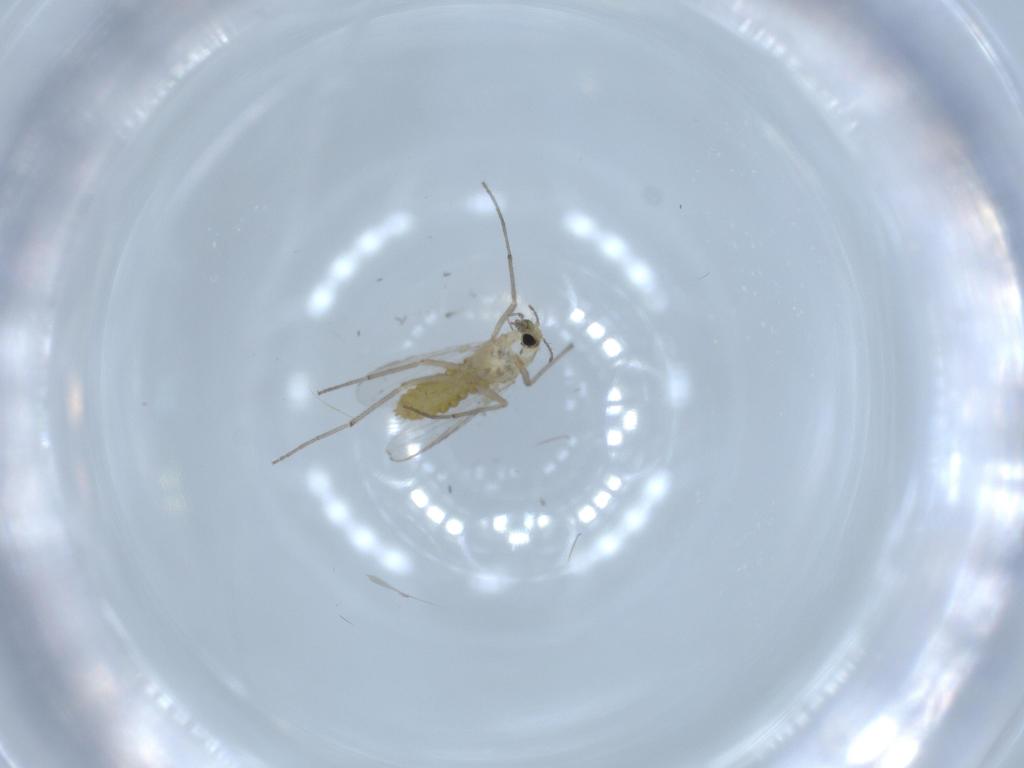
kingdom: Animalia
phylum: Arthropoda
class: Insecta
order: Diptera
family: Chironomidae
